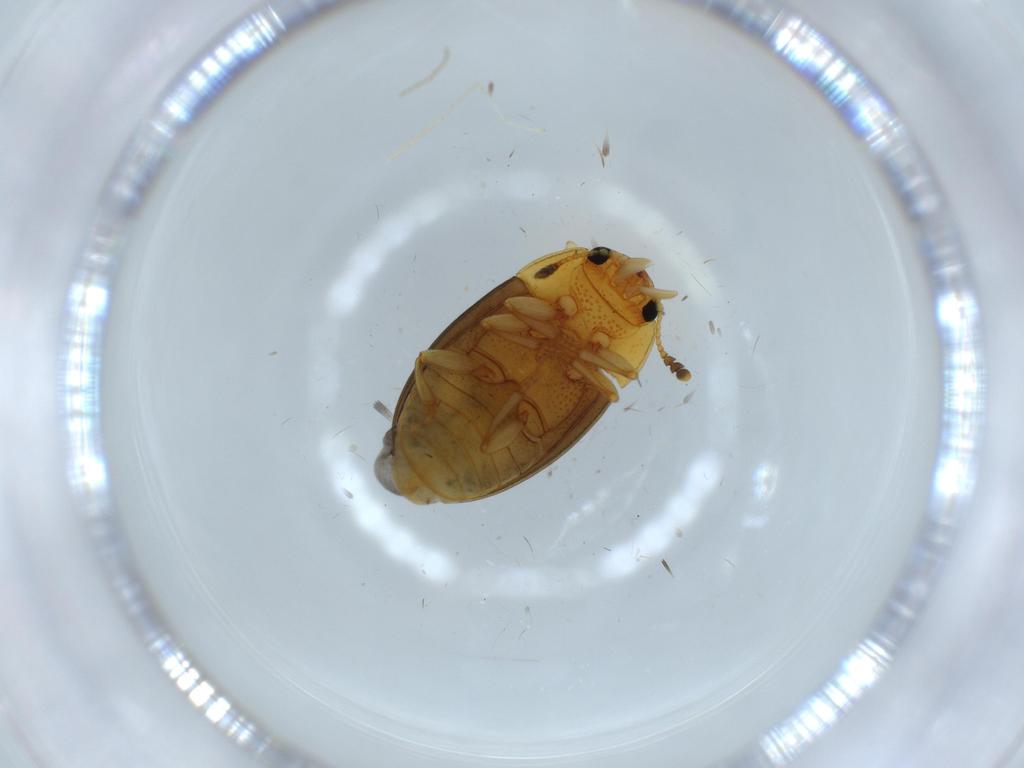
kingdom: Animalia
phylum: Arthropoda
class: Insecta
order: Coleoptera
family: Erotylidae
